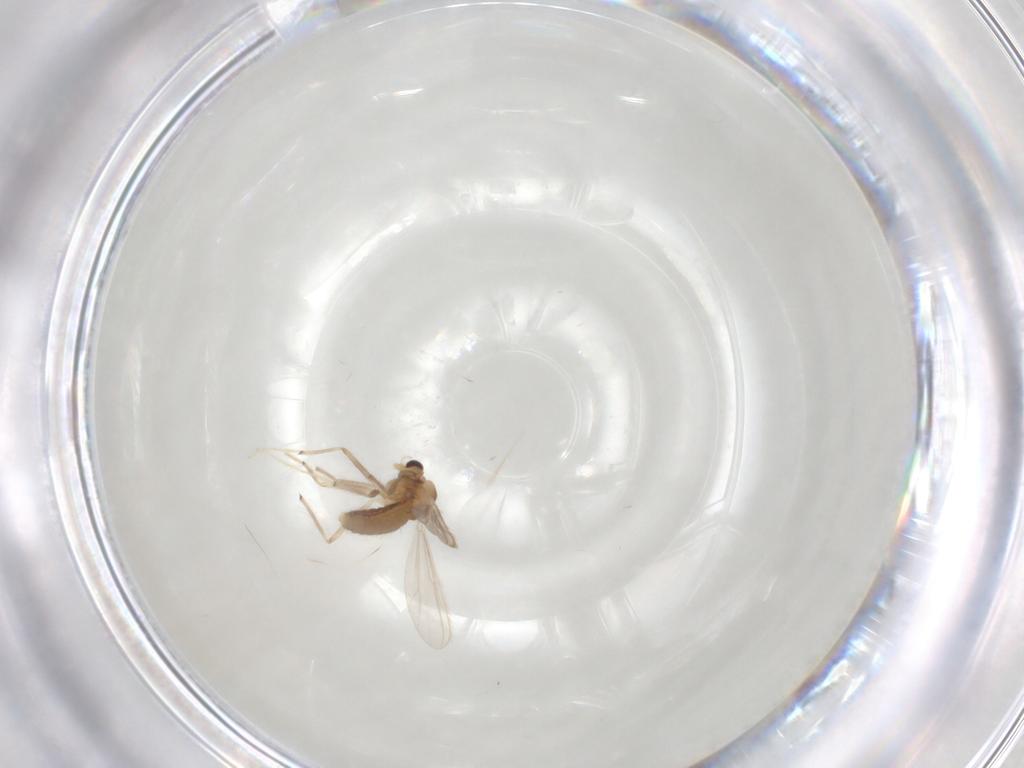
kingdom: Animalia
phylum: Arthropoda
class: Insecta
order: Diptera
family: Chironomidae
